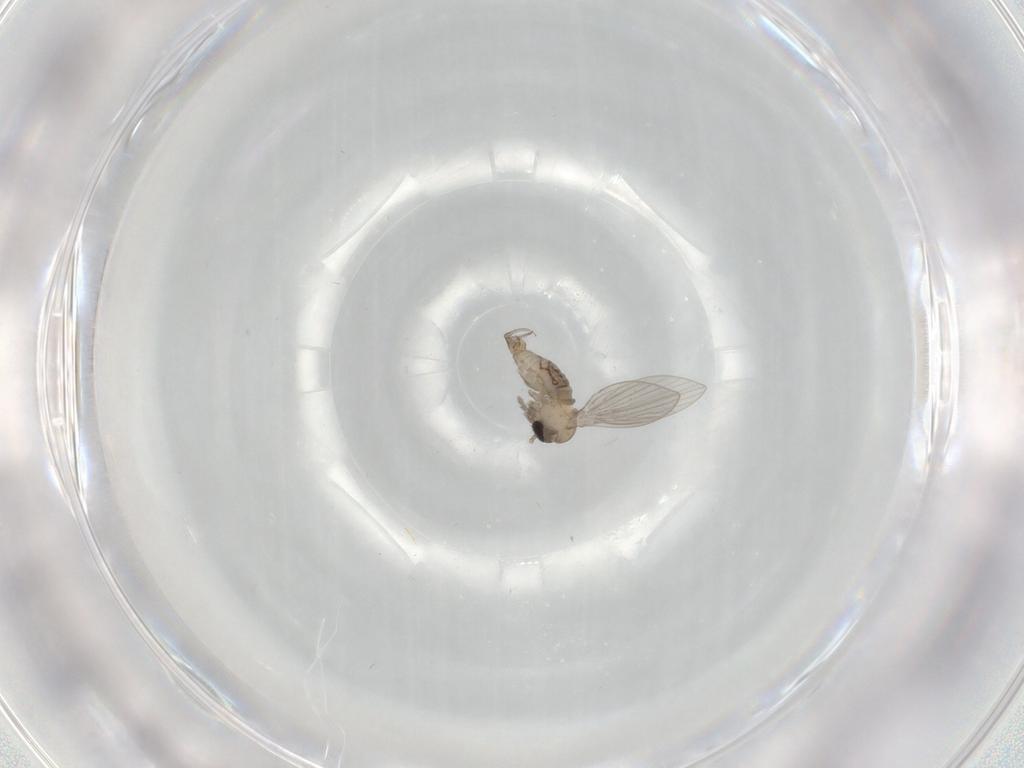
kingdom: Animalia
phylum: Arthropoda
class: Insecta
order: Diptera
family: Psychodidae
